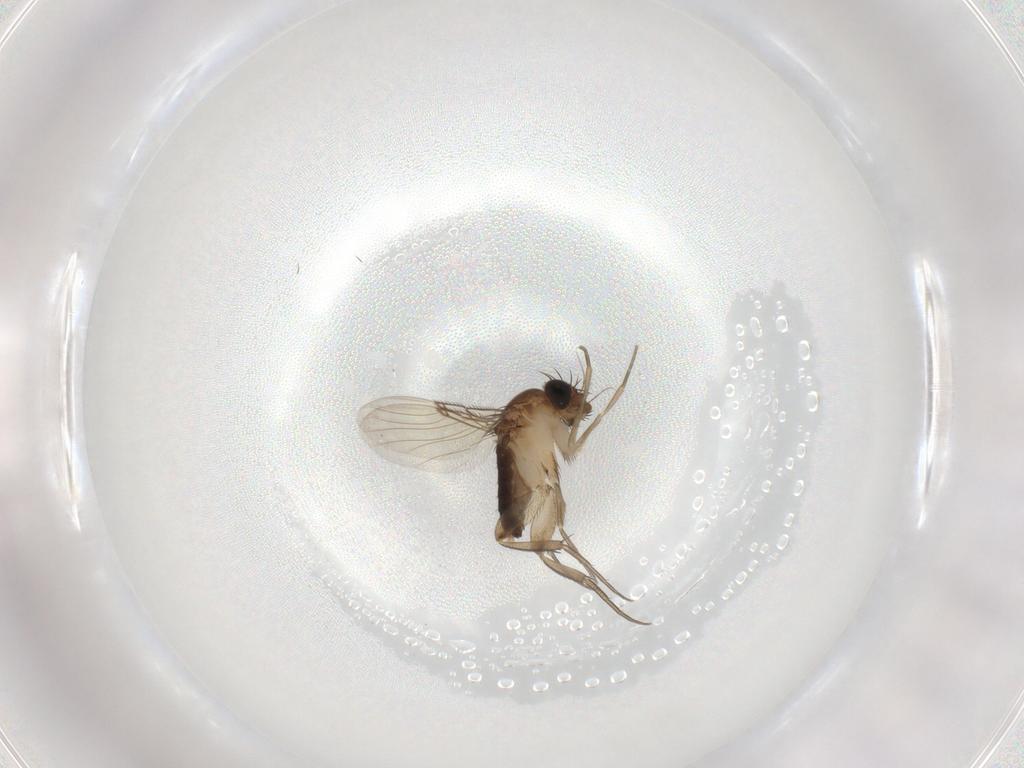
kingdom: Animalia
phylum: Arthropoda
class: Insecta
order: Diptera
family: Phoridae
